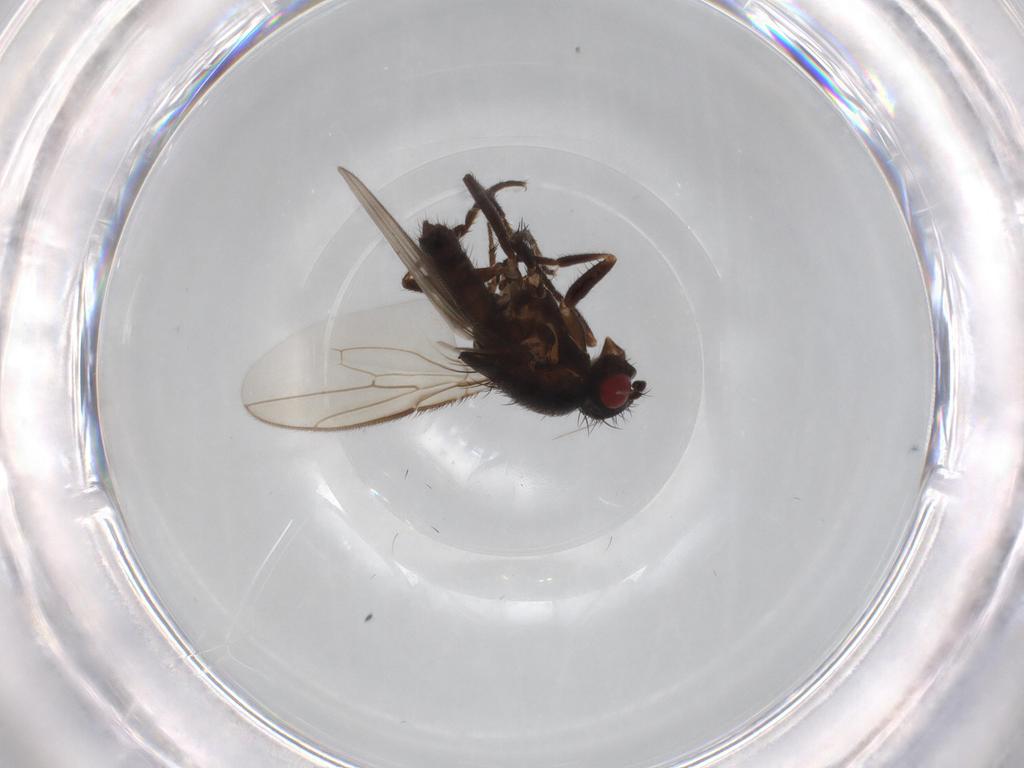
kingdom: Animalia
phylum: Arthropoda
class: Insecta
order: Diptera
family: Sphaeroceridae
